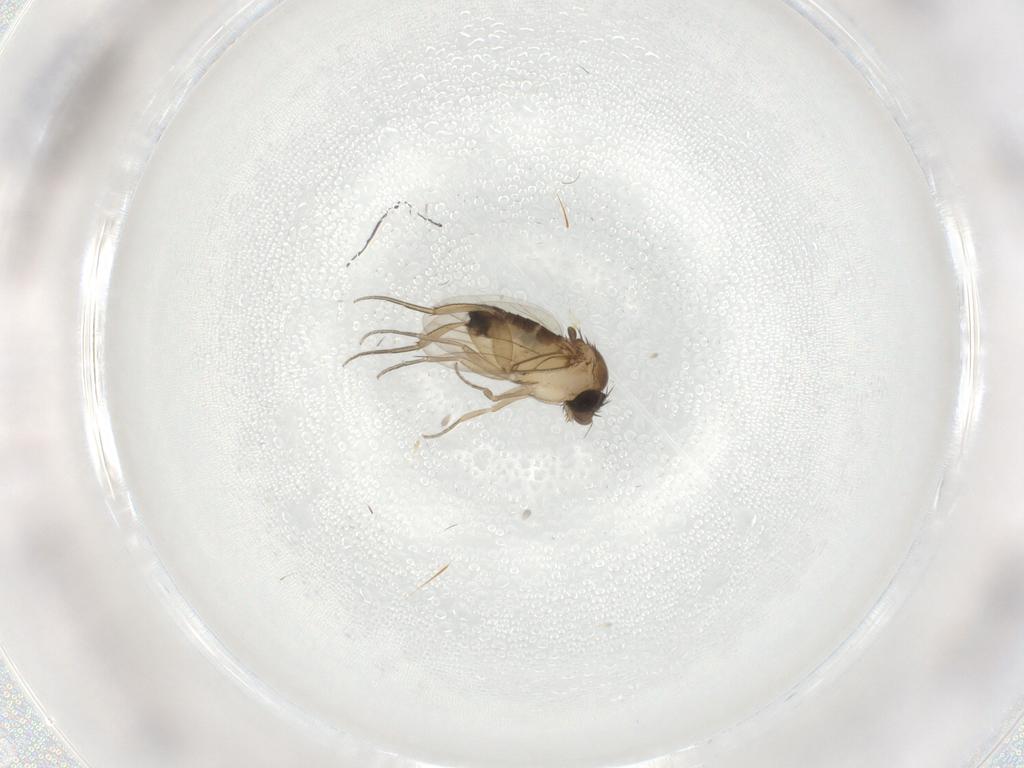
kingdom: Animalia
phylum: Arthropoda
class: Insecta
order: Diptera
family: Phoridae
